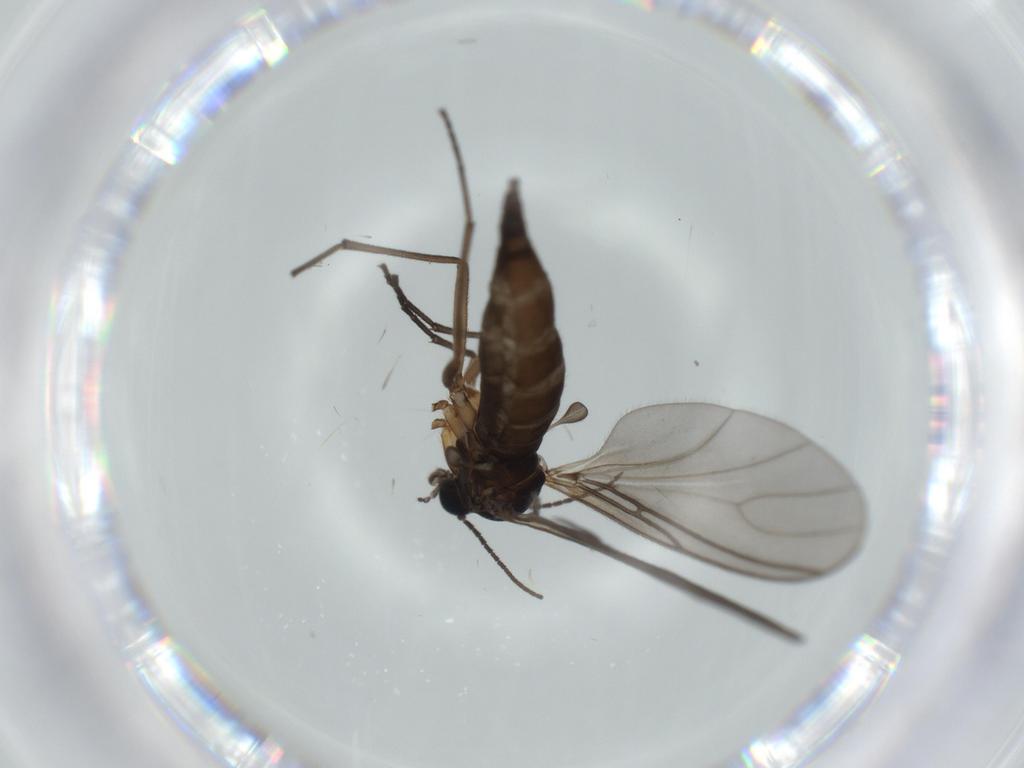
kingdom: Animalia
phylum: Arthropoda
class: Insecta
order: Diptera
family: Sciaridae
